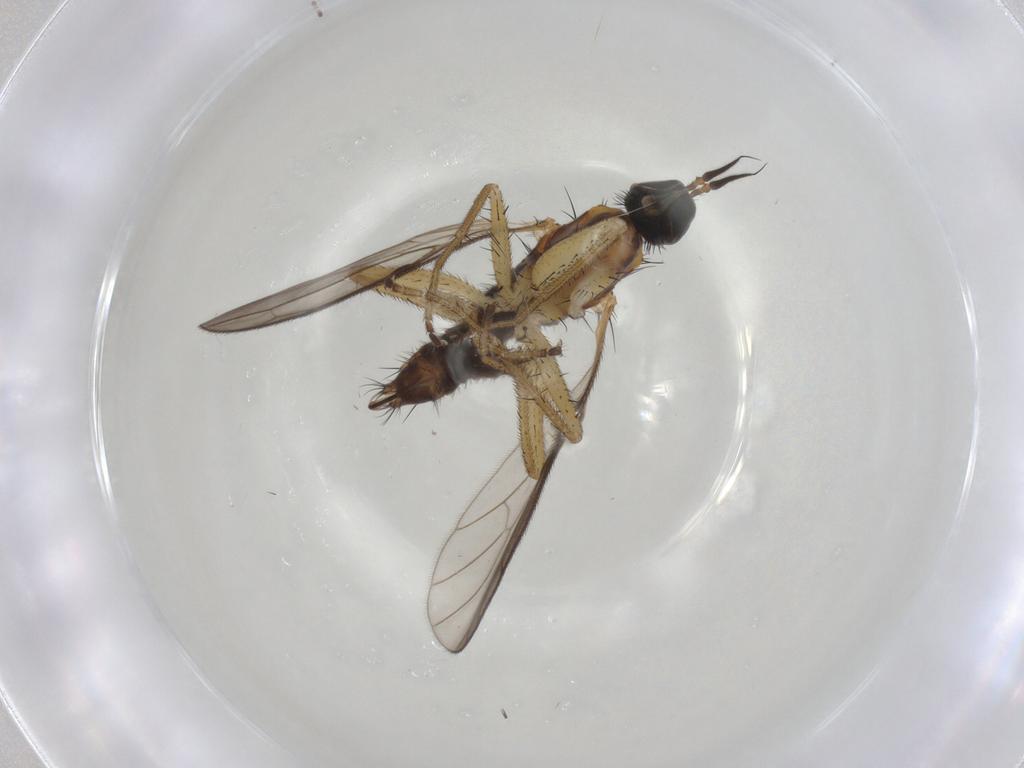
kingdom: Animalia
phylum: Arthropoda
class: Insecta
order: Diptera
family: Empididae
